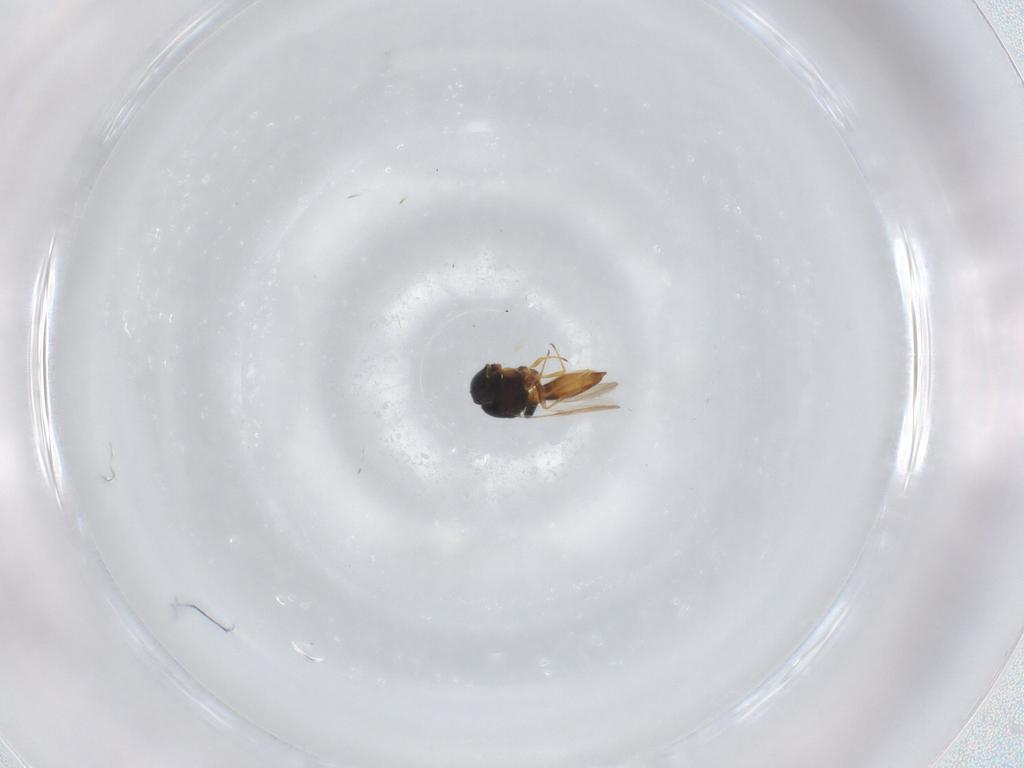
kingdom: Animalia
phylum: Arthropoda
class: Insecta
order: Hymenoptera
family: Scelionidae
